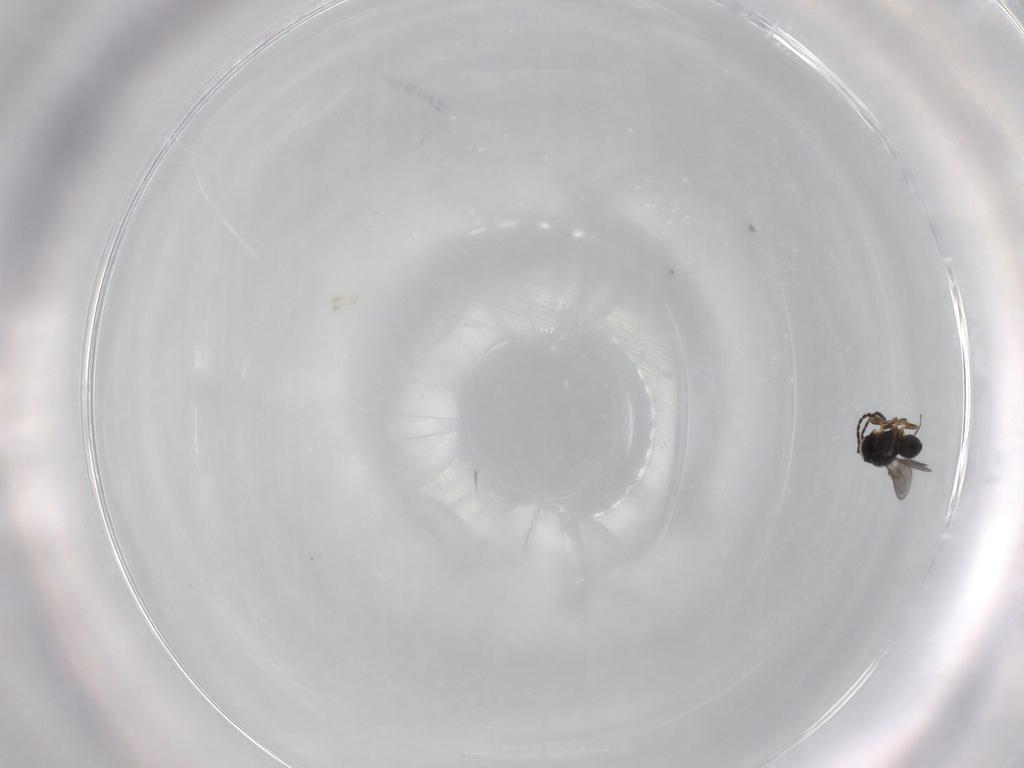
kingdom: Animalia
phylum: Arthropoda
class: Insecta
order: Hymenoptera
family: Scelionidae
